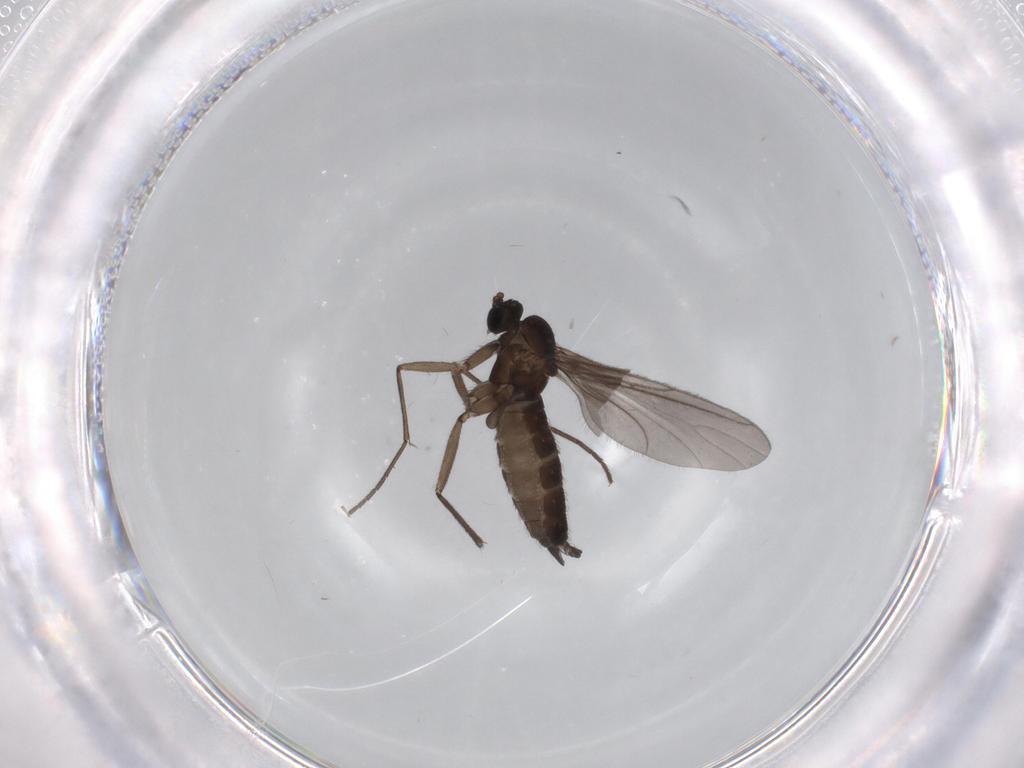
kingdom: Animalia
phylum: Arthropoda
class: Insecta
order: Diptera
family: Sciaridae
